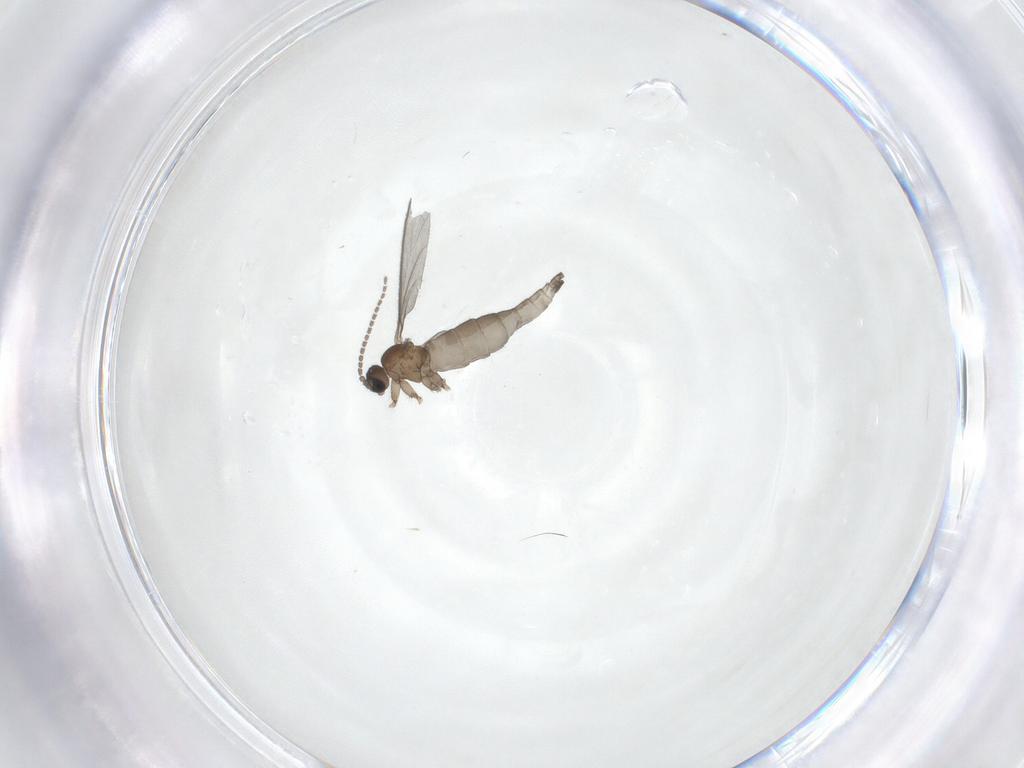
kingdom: Animalia
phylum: Arthropoda
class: Insecta
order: Diptera
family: Sciaridae
